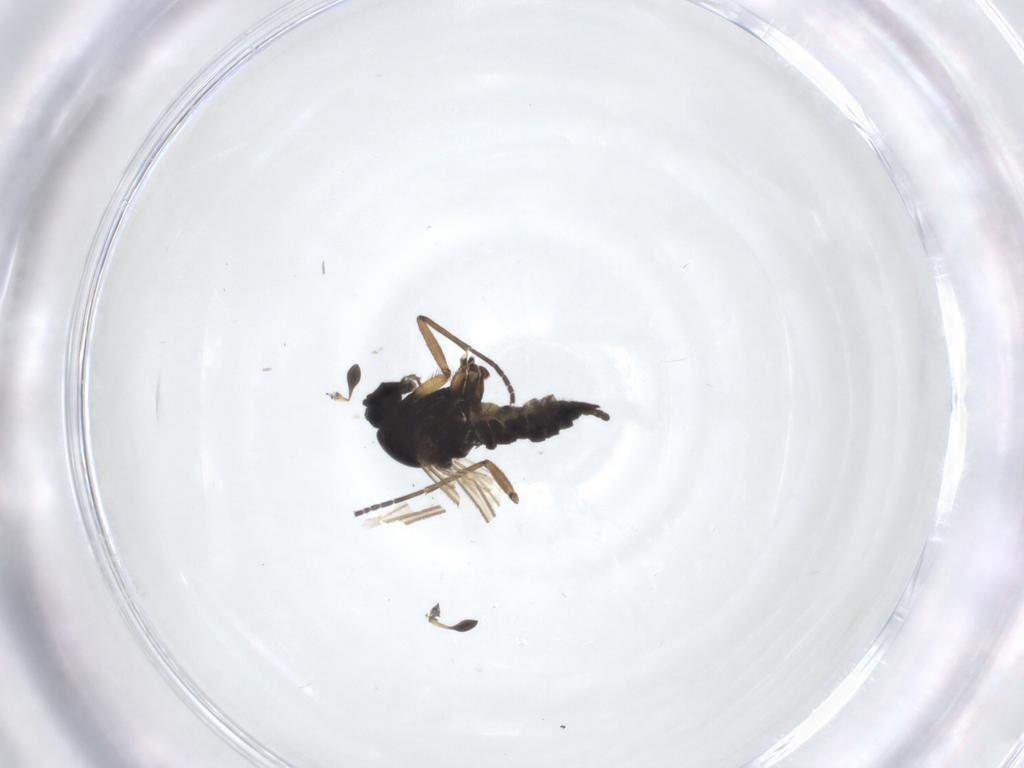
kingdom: Animalia
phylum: Arthropoda
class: Insecta
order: Diptera
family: Sciaridae
